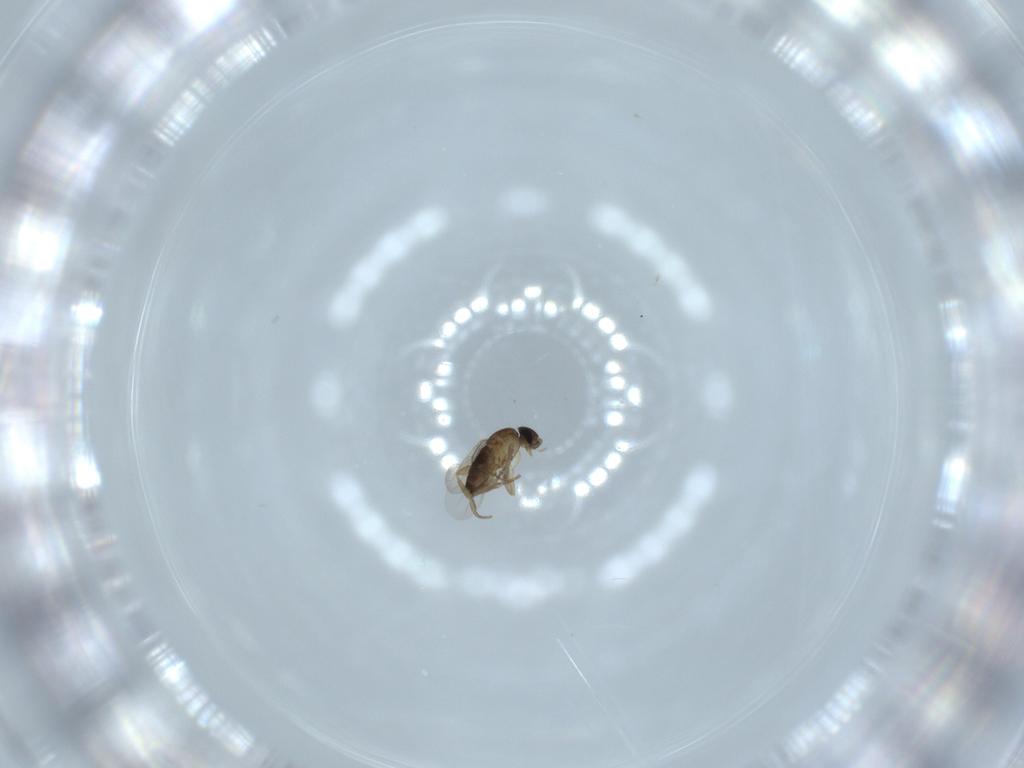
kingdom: Animalia
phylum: Arthropoda
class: Insecta
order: Diptera
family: Phoridae
